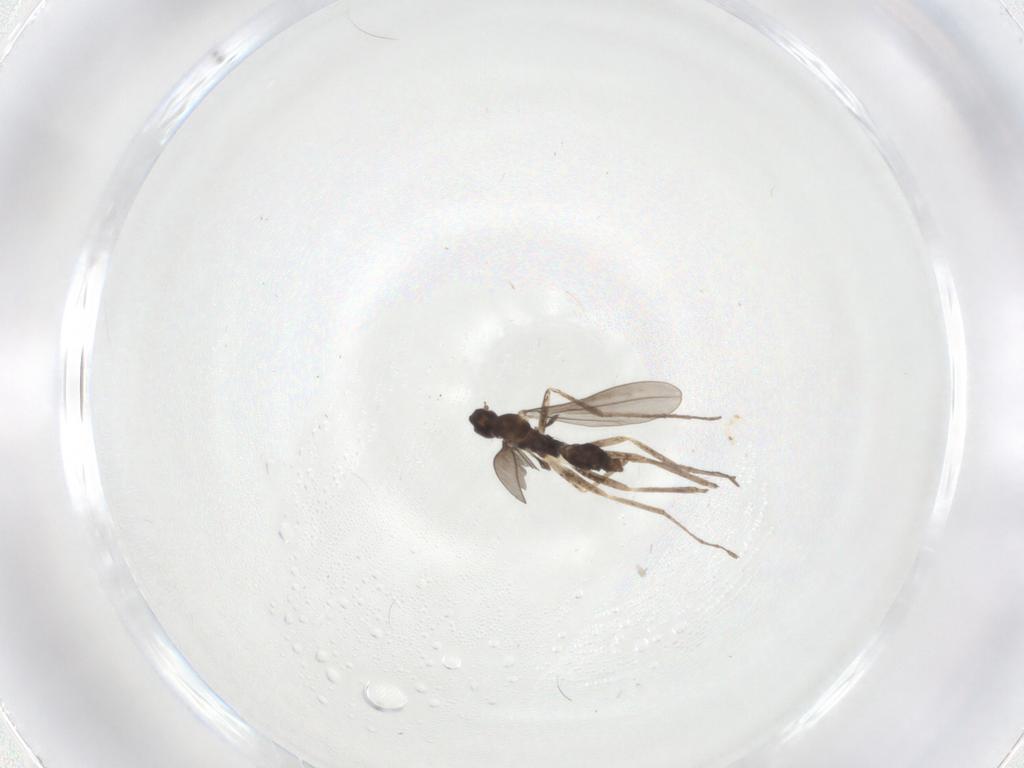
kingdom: Animalia
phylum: Arthropoda
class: Insecta
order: Diptera
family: Cecidomyiidae
